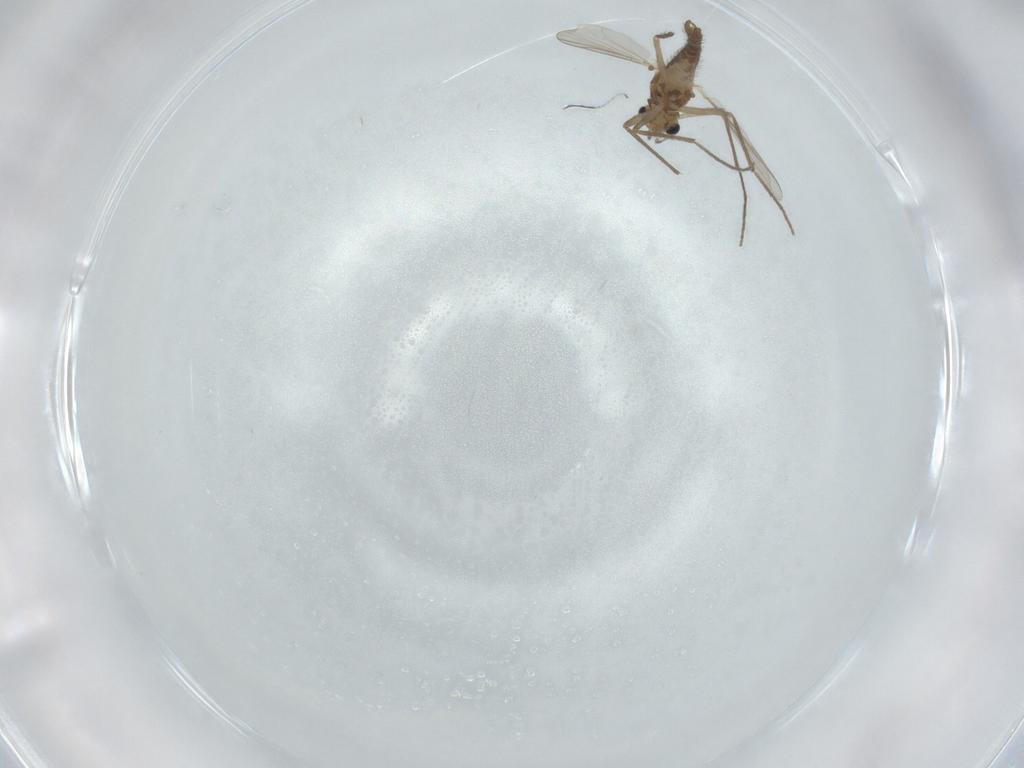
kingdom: Animalia
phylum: Arthropoda
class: Insecta
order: Diptera
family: Chironomidae
